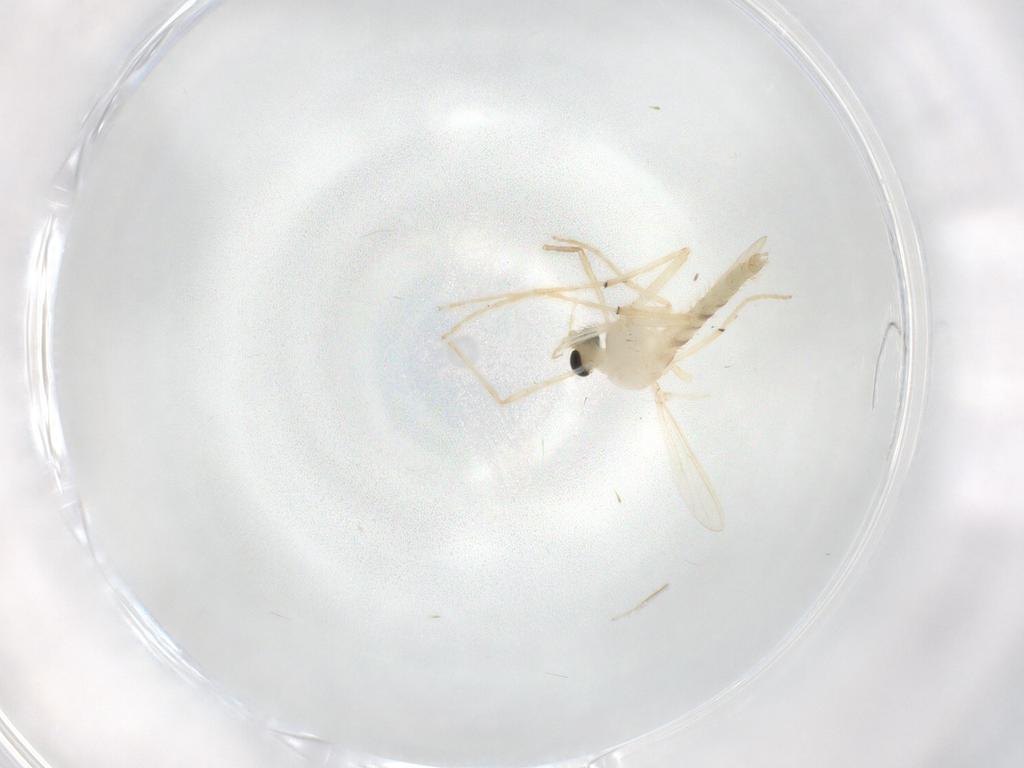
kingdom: Animalia
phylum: Arthropoda
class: Insecta
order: Diptera
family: Chironomidae
